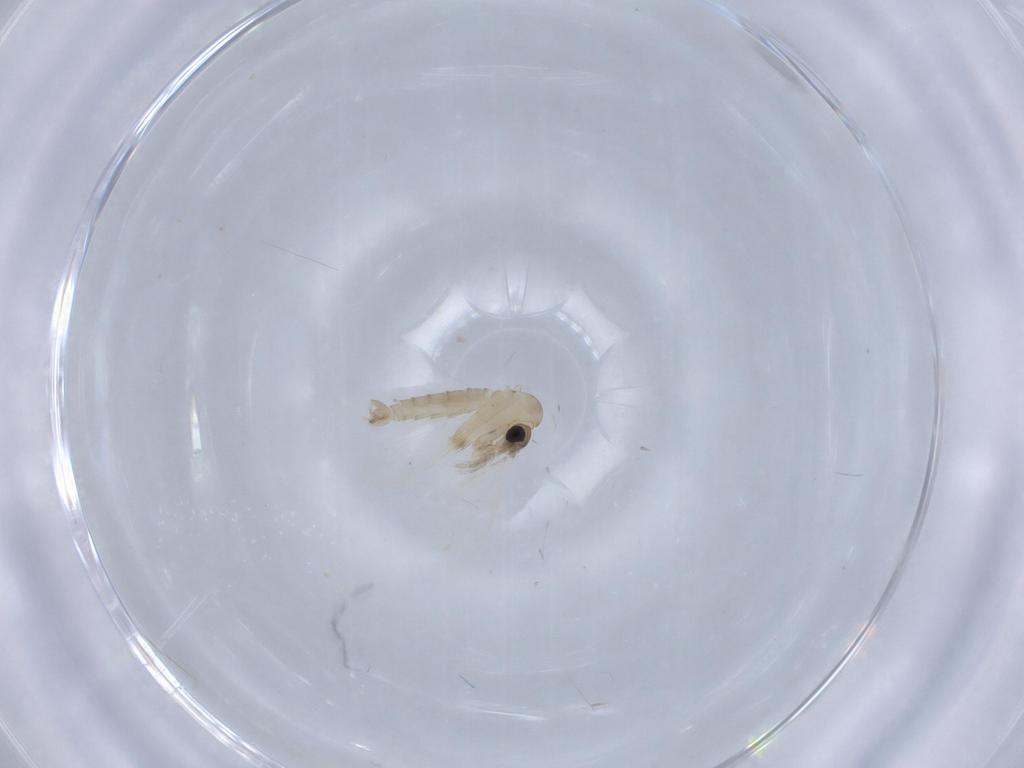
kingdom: Animalia
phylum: Arthropoda
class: Insecta
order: Diptera
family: Psychodidae
